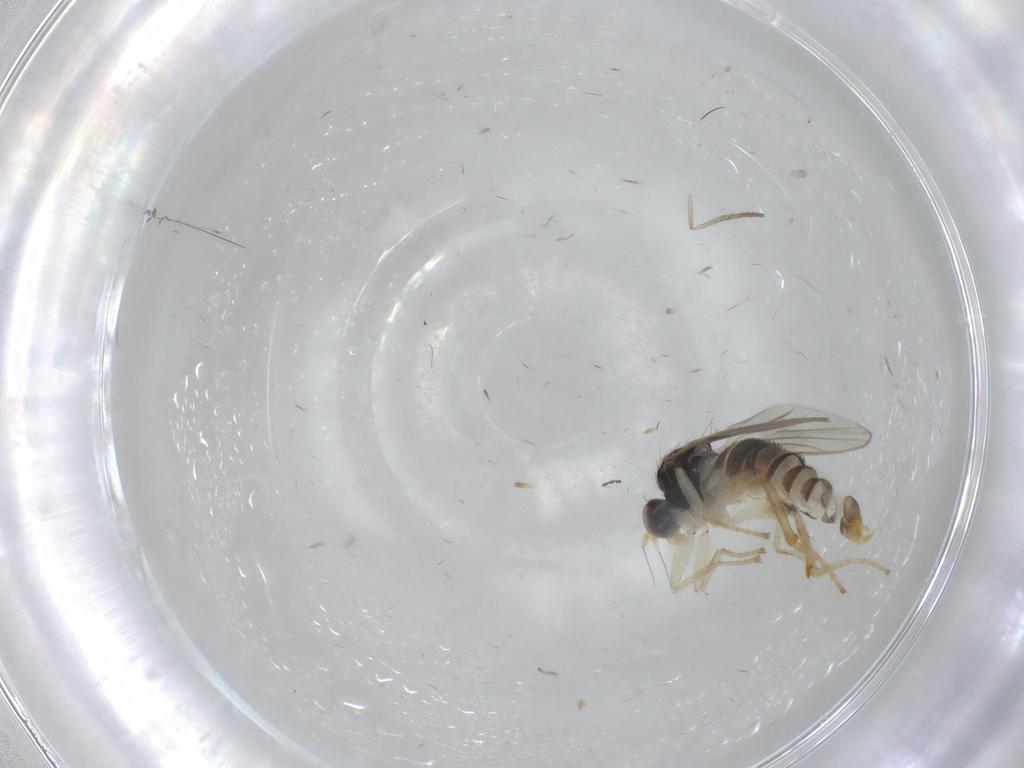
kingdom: Animalia
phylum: Arthropoda
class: Insecta
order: Diptera
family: Hybotidae
